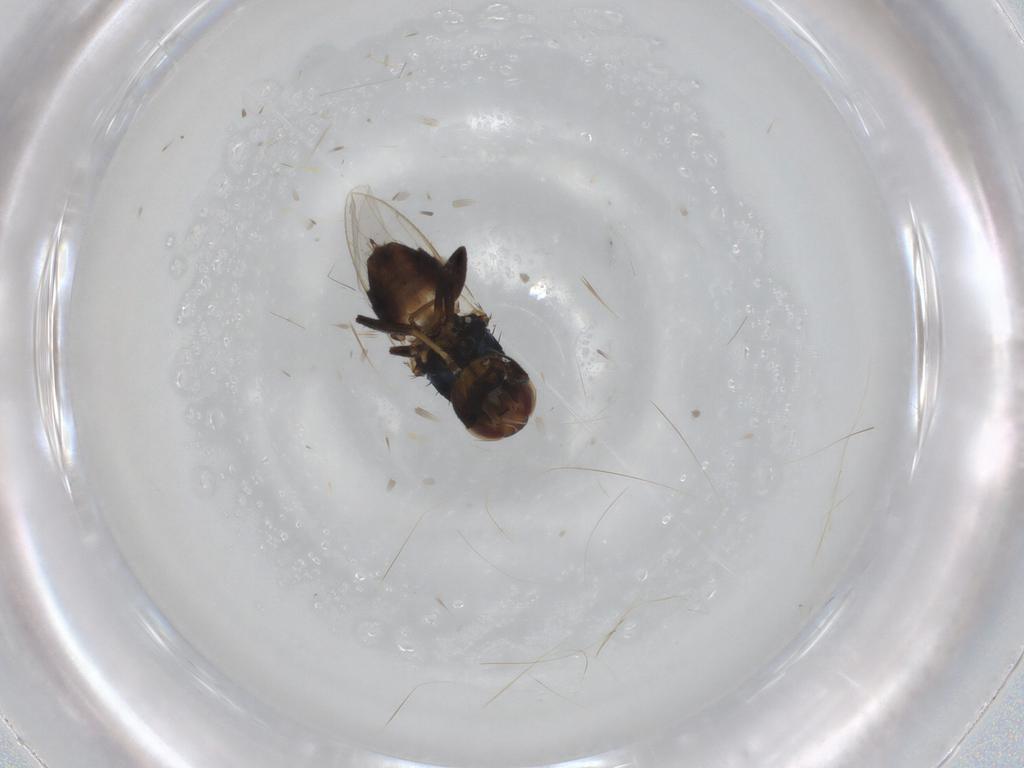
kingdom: Animalia
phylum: Arthropoda
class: Insecta
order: Diptera
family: Chloropidae
